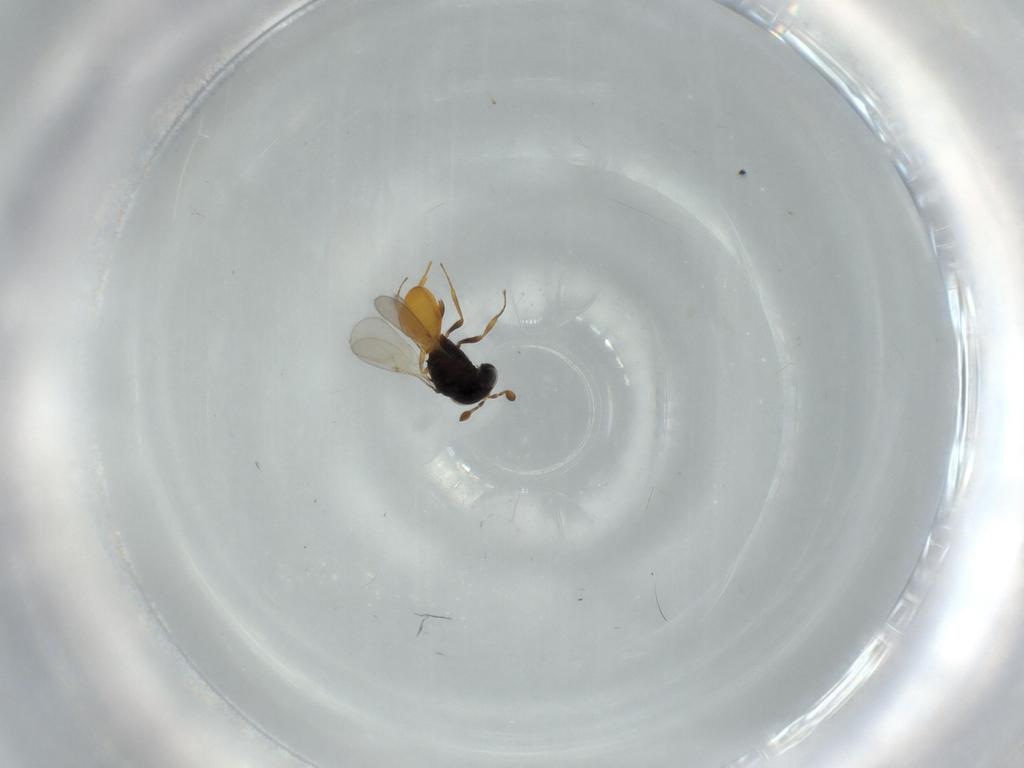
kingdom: Animalia
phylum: Arthropoda
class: Insecta
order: Hymenoptera
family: Scelionidae
